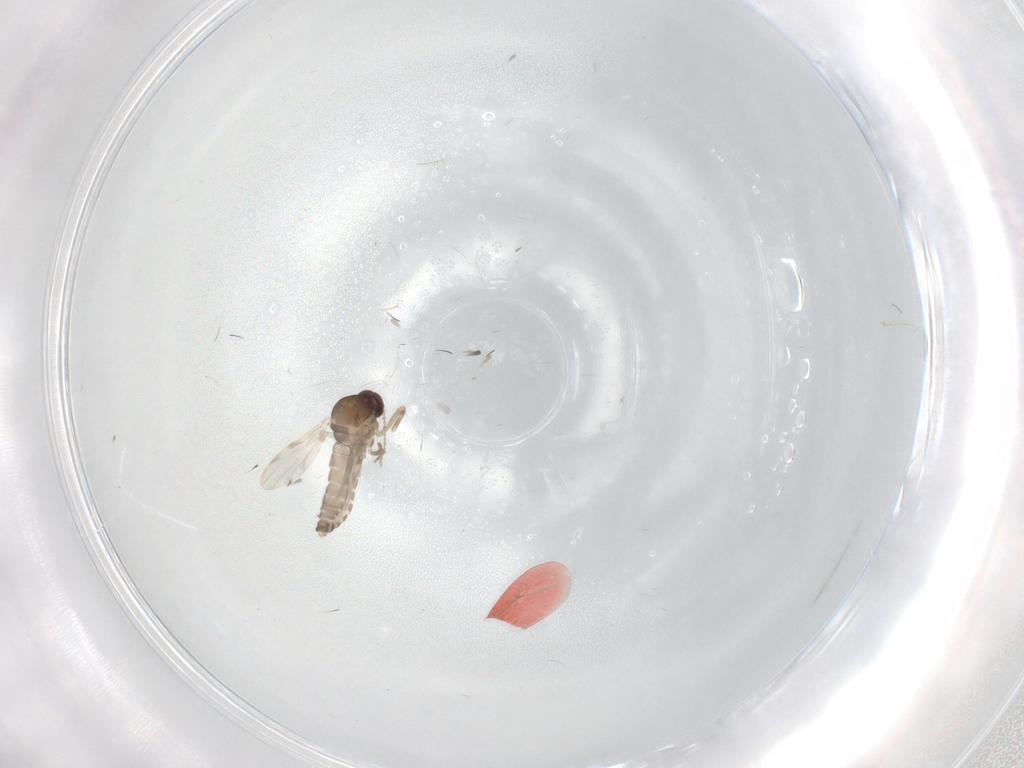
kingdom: Animalia
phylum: Arthropoda
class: Insecta
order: Diptera
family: Ceratopogonidae
